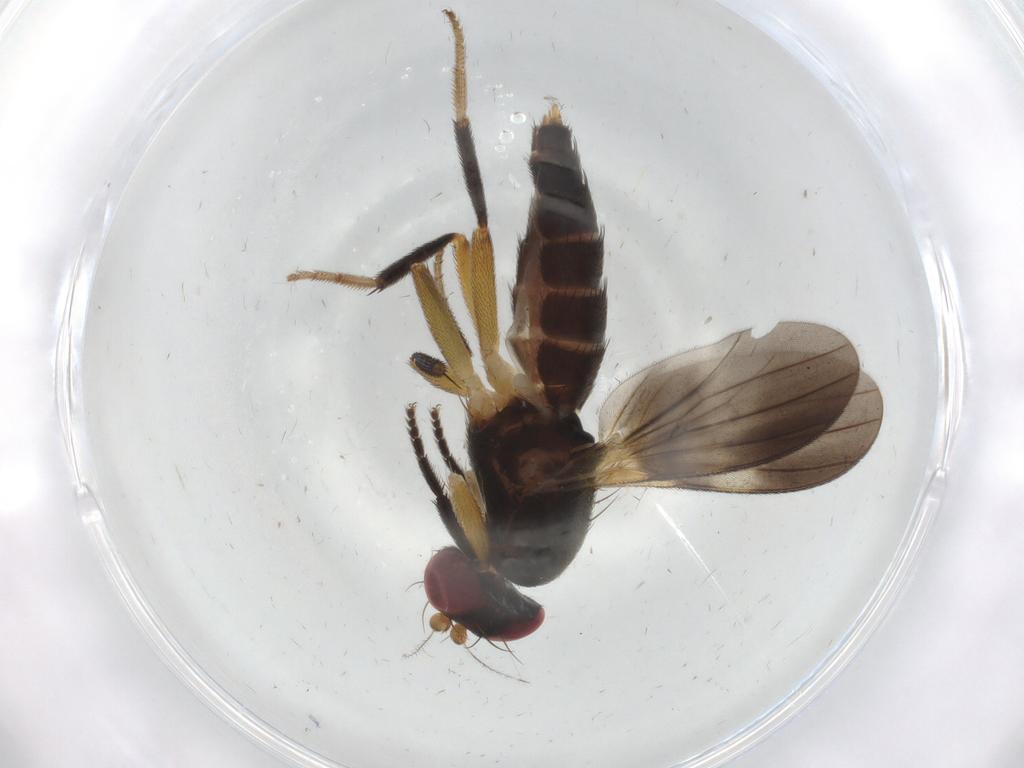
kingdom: Animalia
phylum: Arthropoda
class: Insecta
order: Diptera
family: Clusiidae
